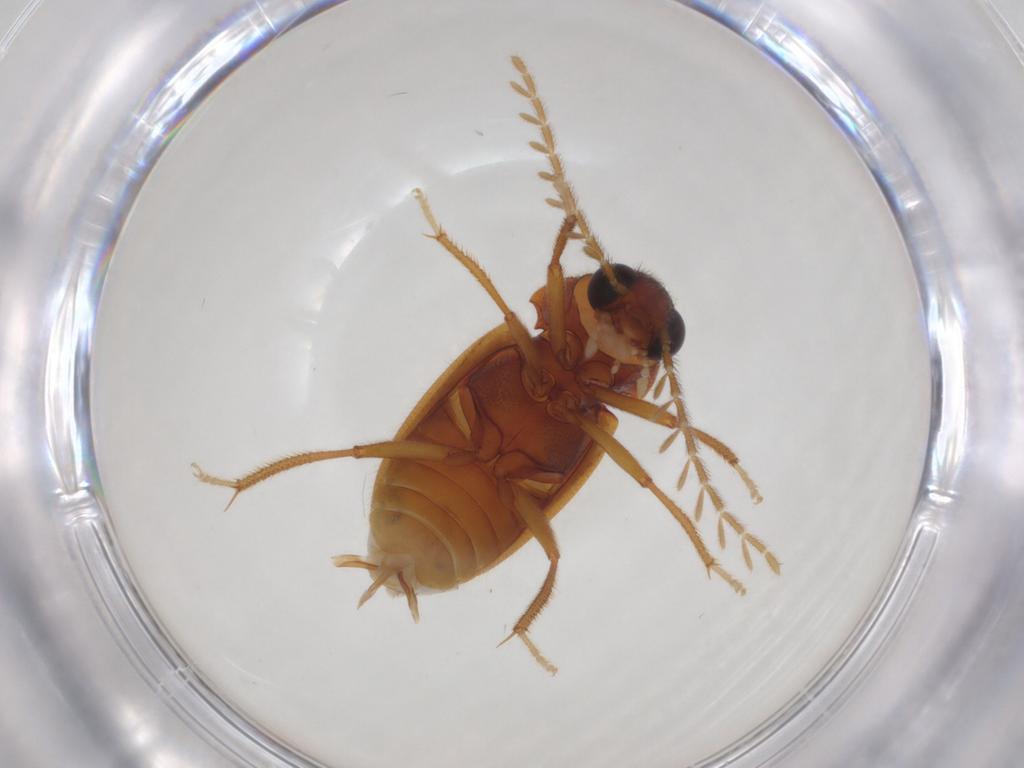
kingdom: Animalia
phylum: Arthropoda
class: Insecta
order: Coleoptera
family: Ptilodactylidae
